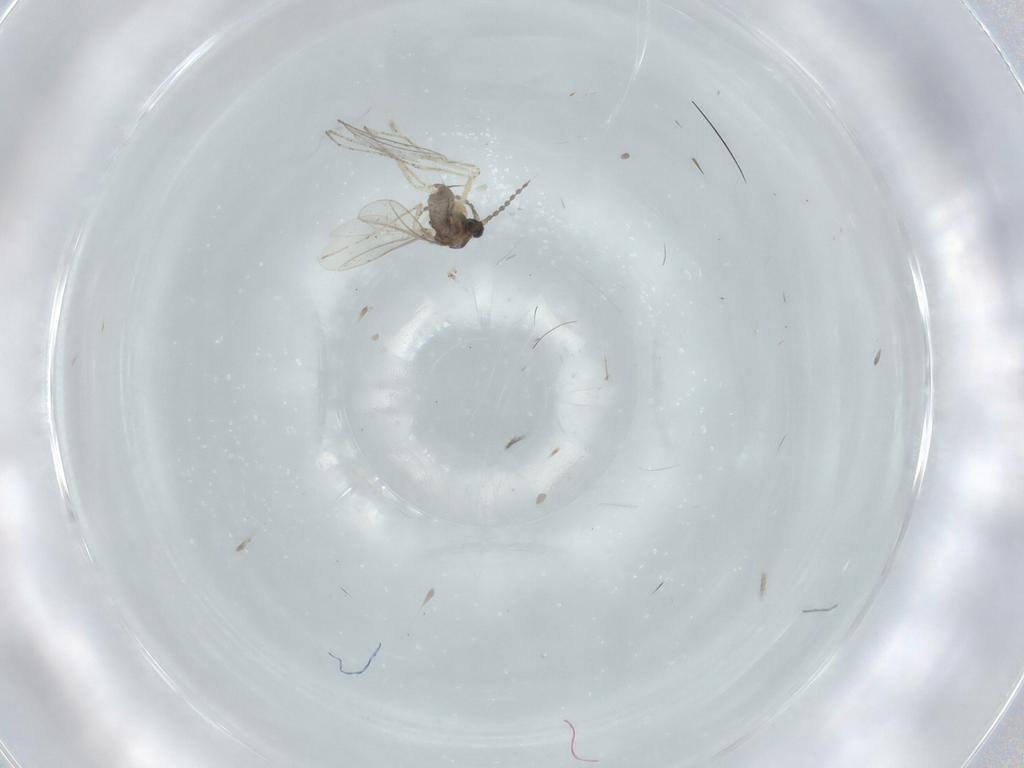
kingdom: Animalia
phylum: Arthropoda
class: Insecta
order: Diptera
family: Cecidomyiidae
